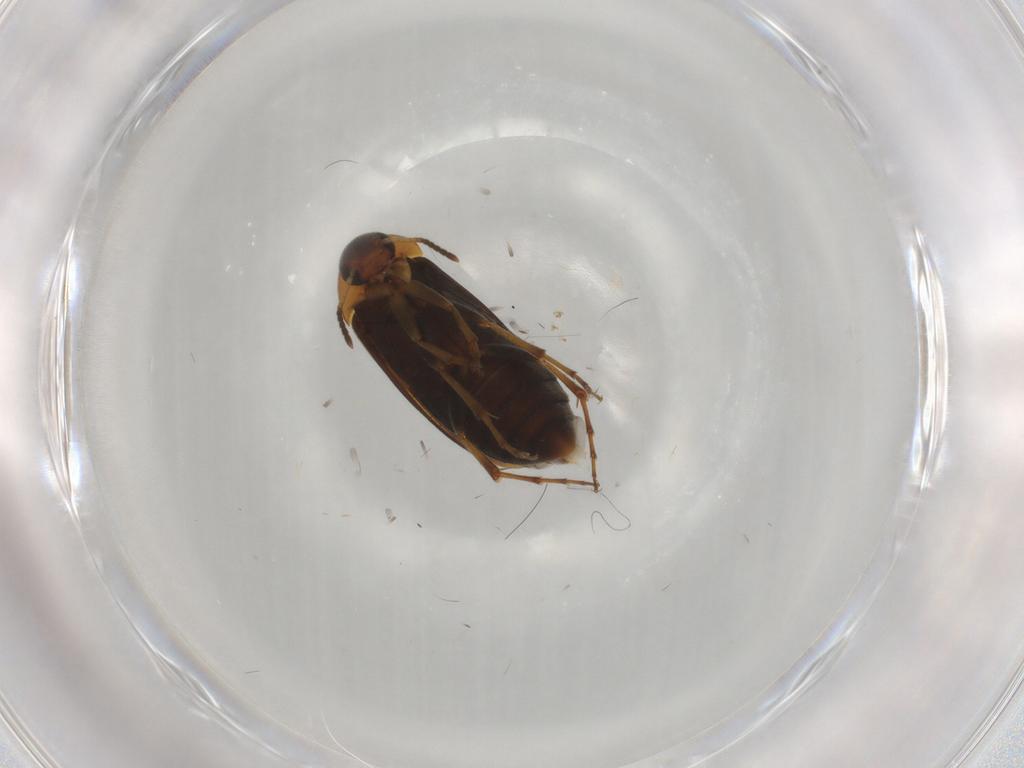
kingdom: Animalia
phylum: Arthropoda
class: Insecta
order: Coleoptera
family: Scraptiidae
